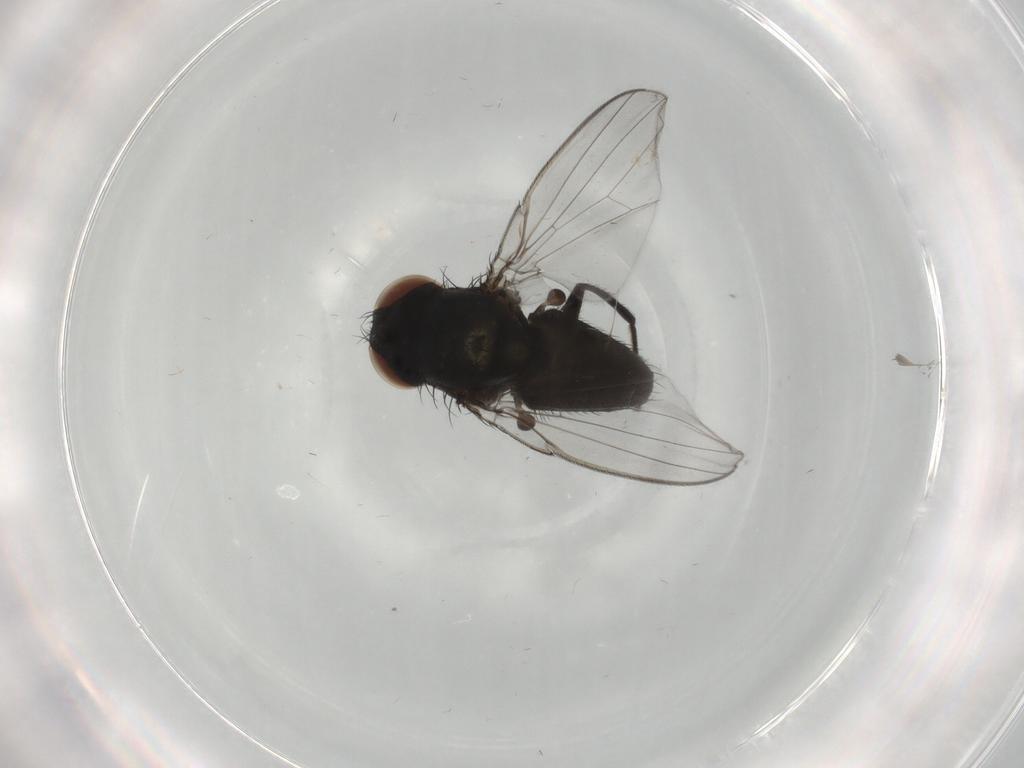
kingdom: Animalia
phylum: Arthropoda
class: Insecta
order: Diptera
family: Milichiidae
